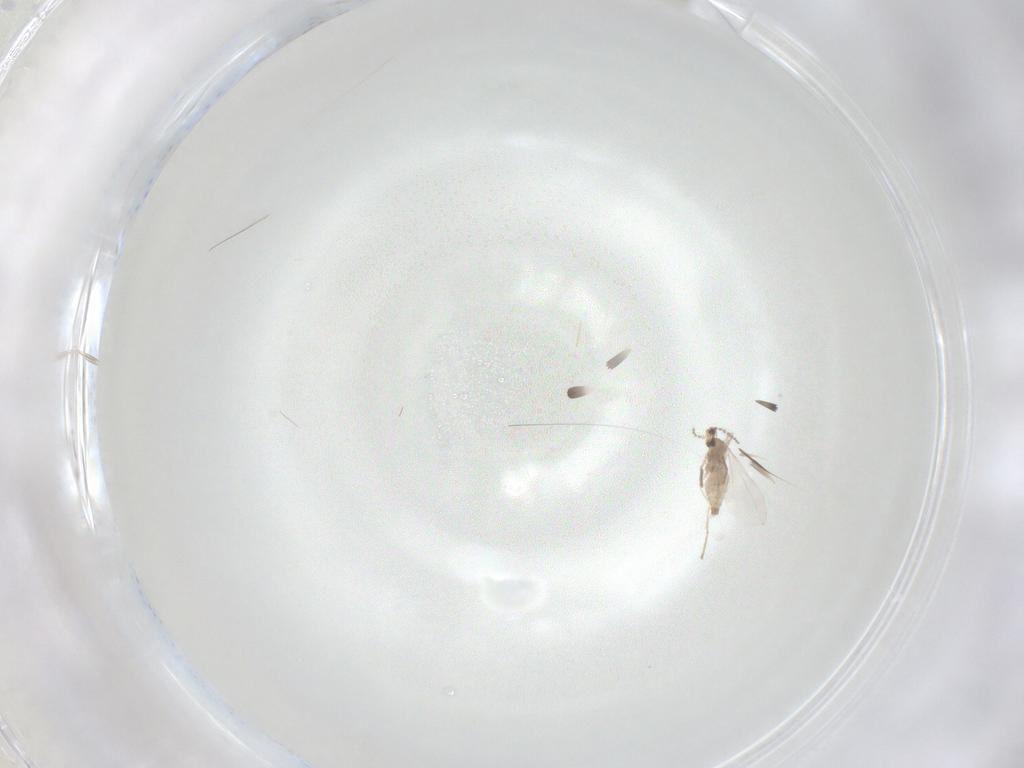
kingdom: Animalia
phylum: Arthropoda
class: Insecta
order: Diptera
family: Cecidomyiidae
